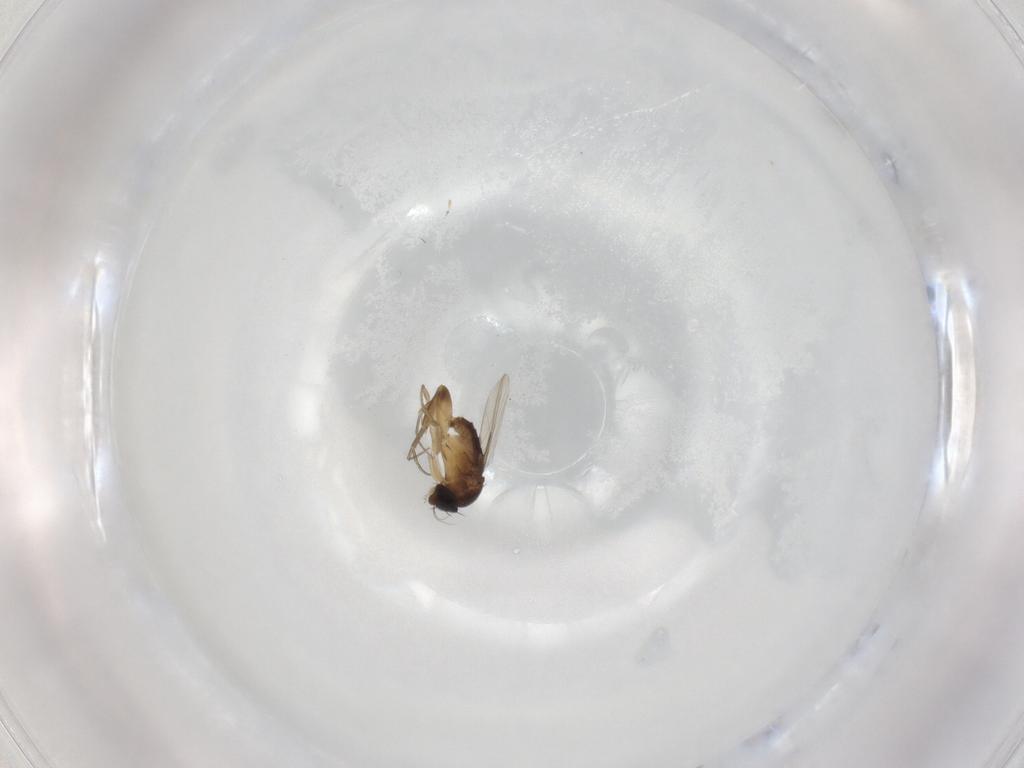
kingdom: Animalia
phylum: Arthropoda
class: Insecta
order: Diptera
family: Phoridae
